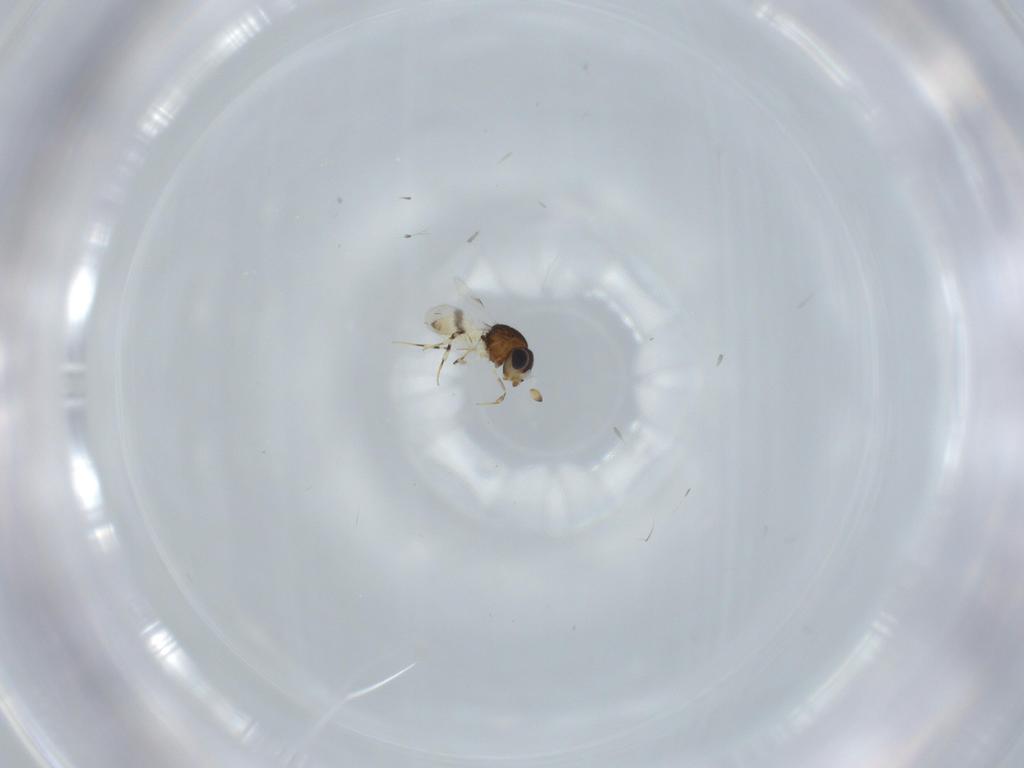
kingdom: Animalia
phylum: Arthropoda
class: Insecta
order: Hymenoptera
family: Scelionidae
